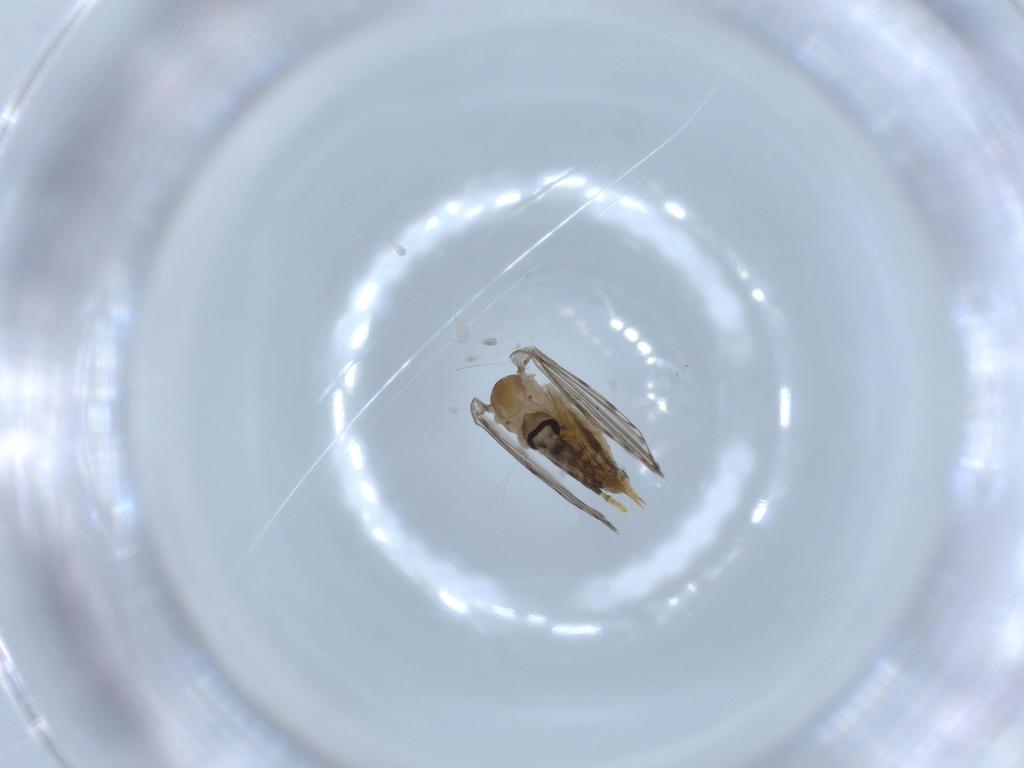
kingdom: Animalia
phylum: Arthropoda
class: Insecta
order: Diptera
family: Psychodidae
